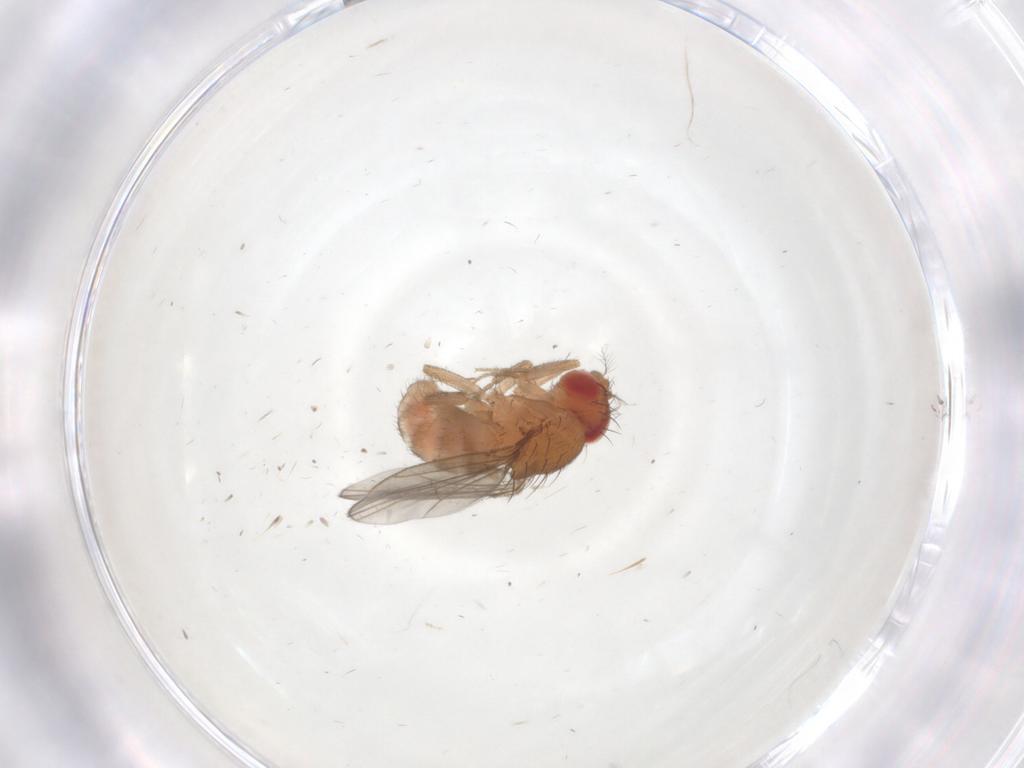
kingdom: Animalia
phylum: Arthropoda
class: Insecta
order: Diptera
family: Drosophilidae
